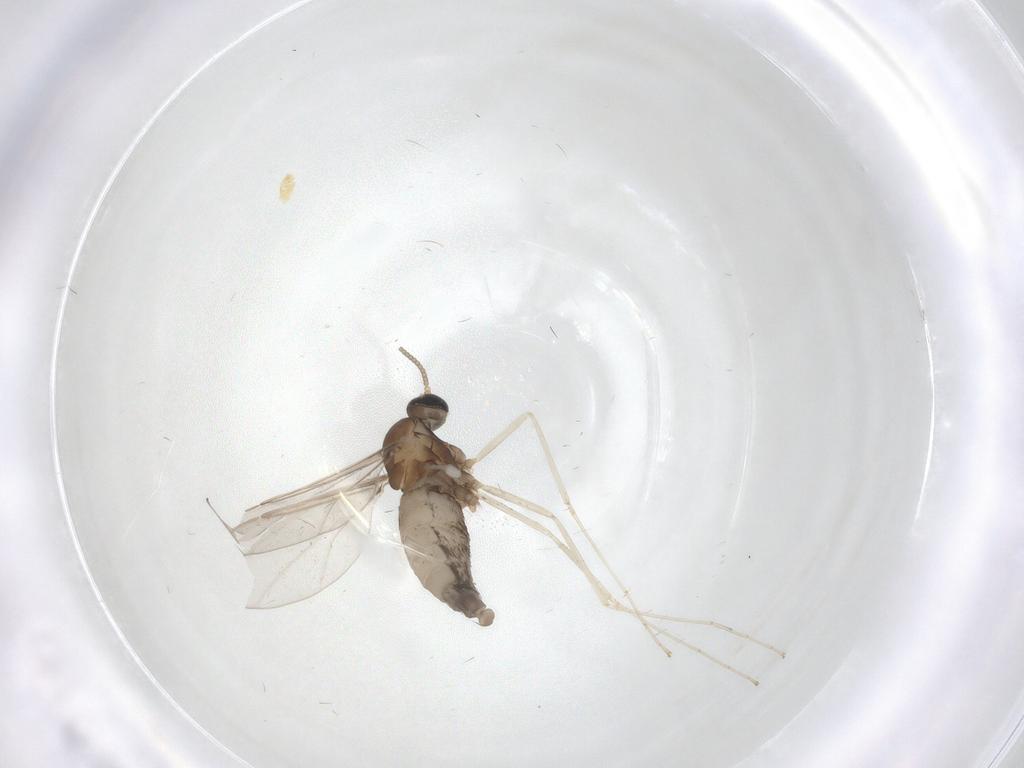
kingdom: Animalia
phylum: Arthropoda
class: Insecta
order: Diptera
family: Cecidomyiidae
